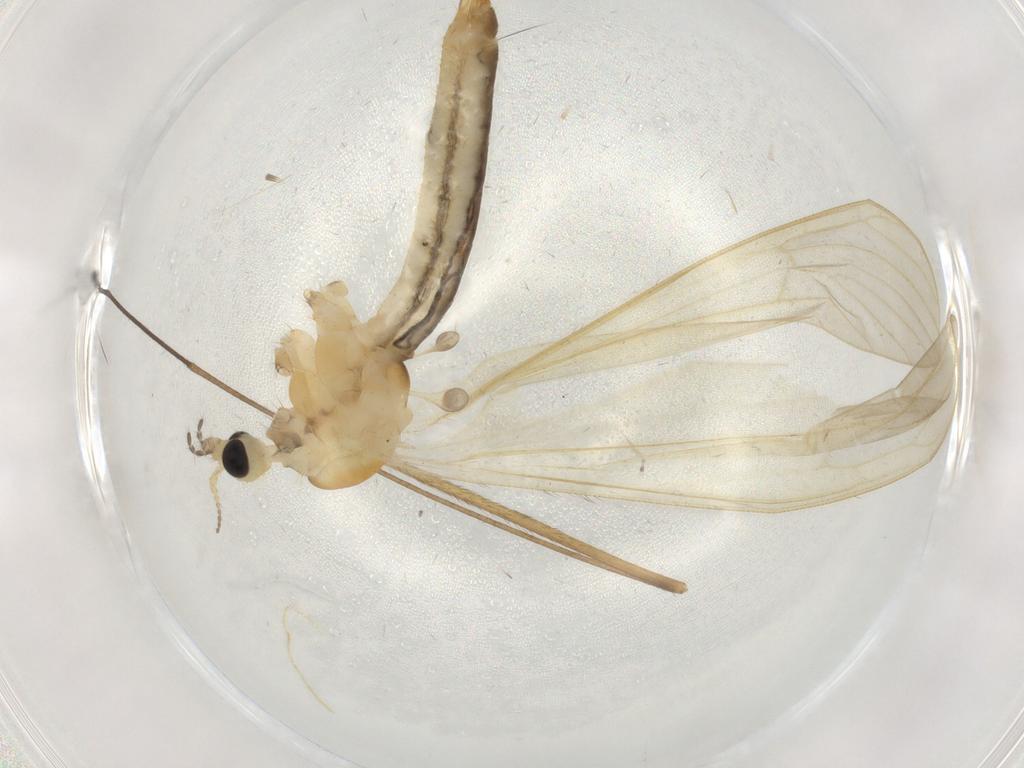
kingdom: Animalia
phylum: Arthropoda
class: Insecta
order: Diptera
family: Limoniidae
